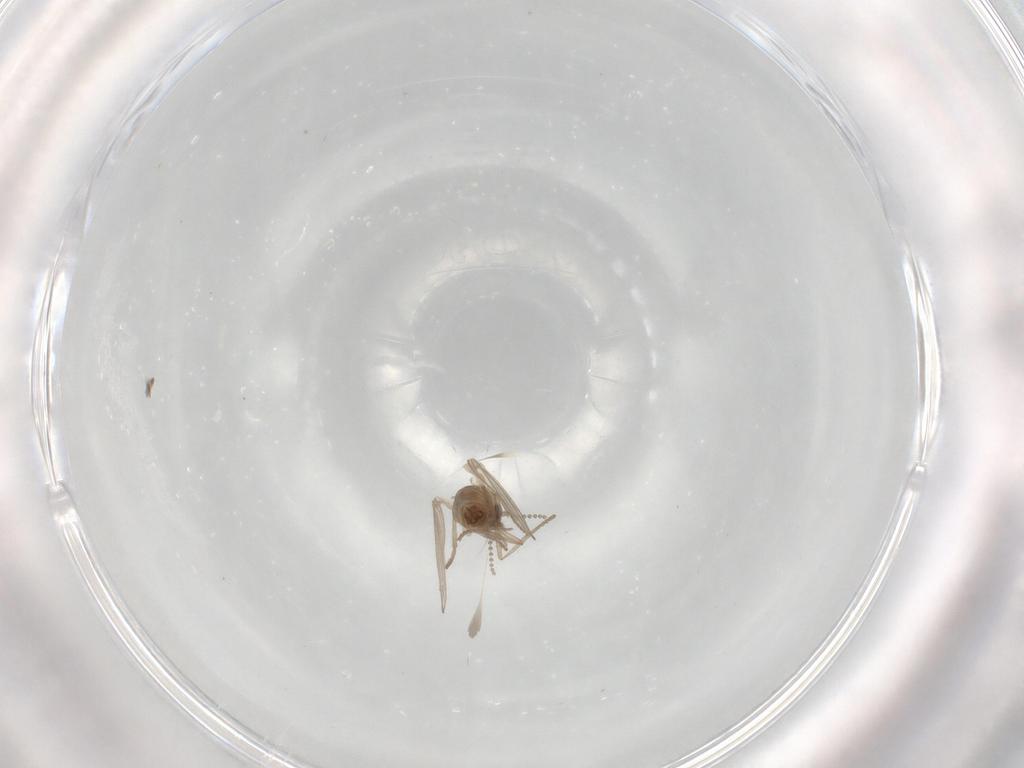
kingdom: Animalia
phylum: Arthropoda
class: Insecta
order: Diptera
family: Psychodidae
